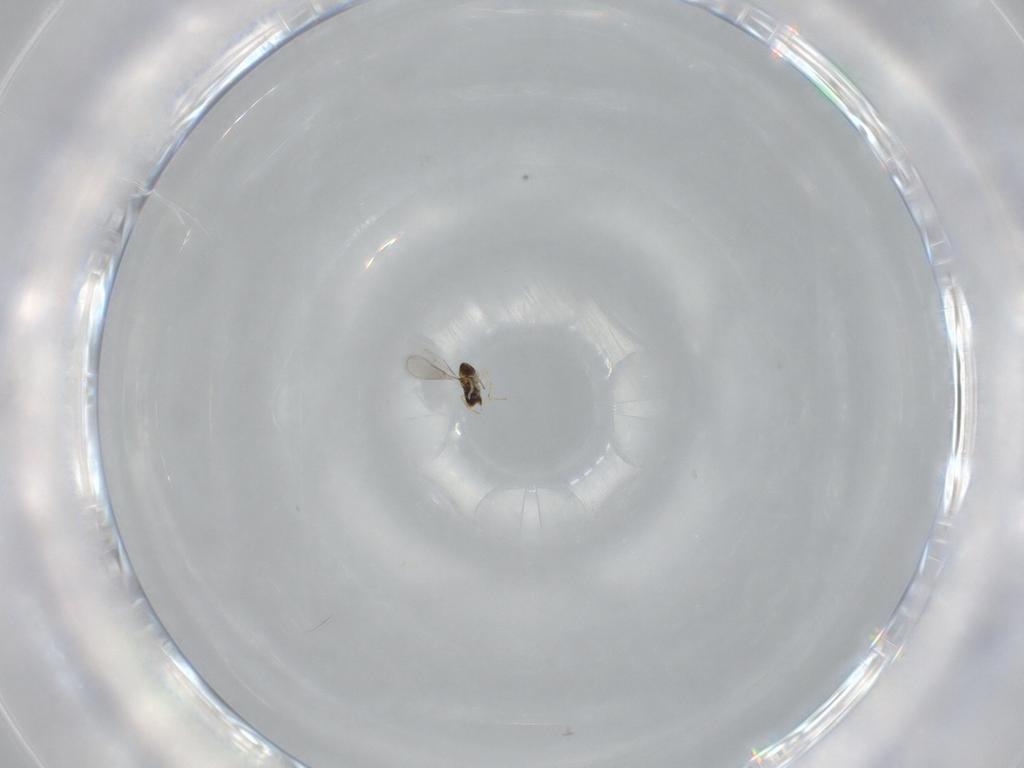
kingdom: Animalia
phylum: Arthropoda
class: Insecta
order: Hymenoptera
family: Aphelinidae
